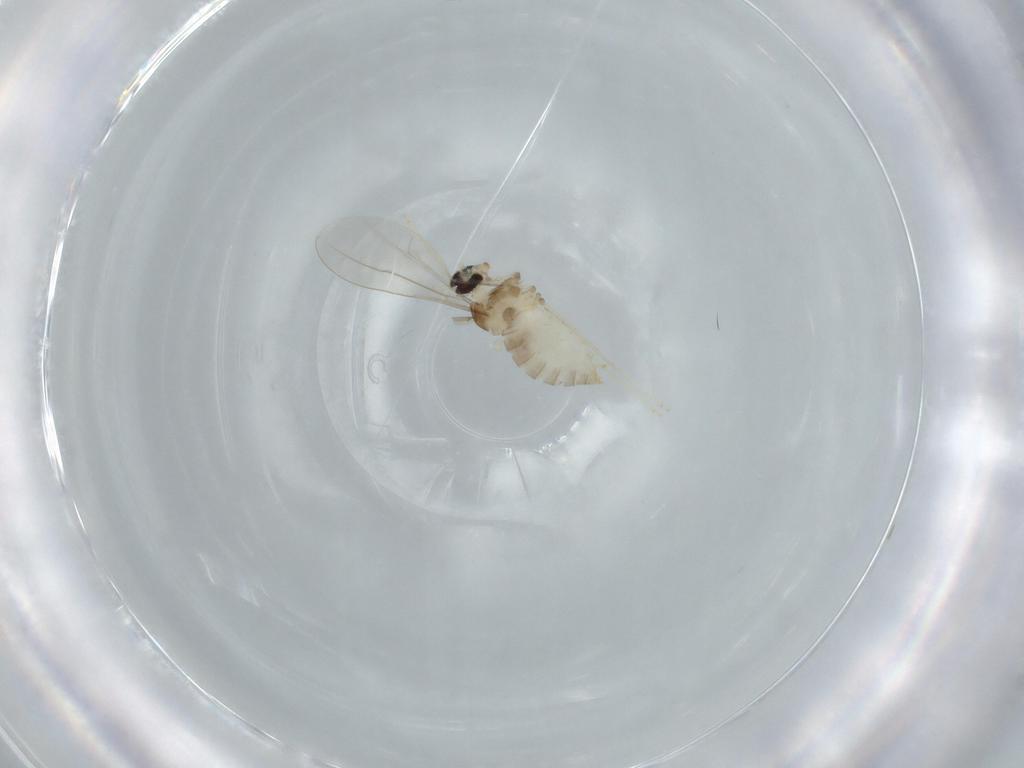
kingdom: Animalia
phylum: Arthropoda
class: Insecta
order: Diptera
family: Cecidomyiidae
